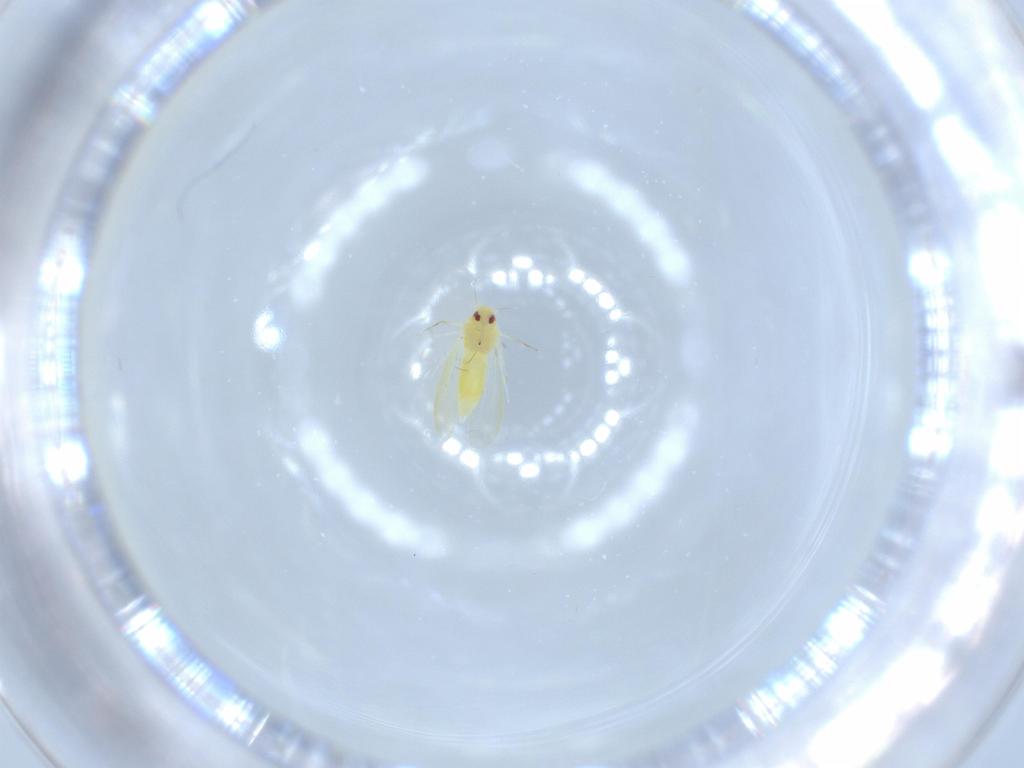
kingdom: Animalia
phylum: Arthropoda
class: Insecta
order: Hemiptera
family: Aleyrodidae
